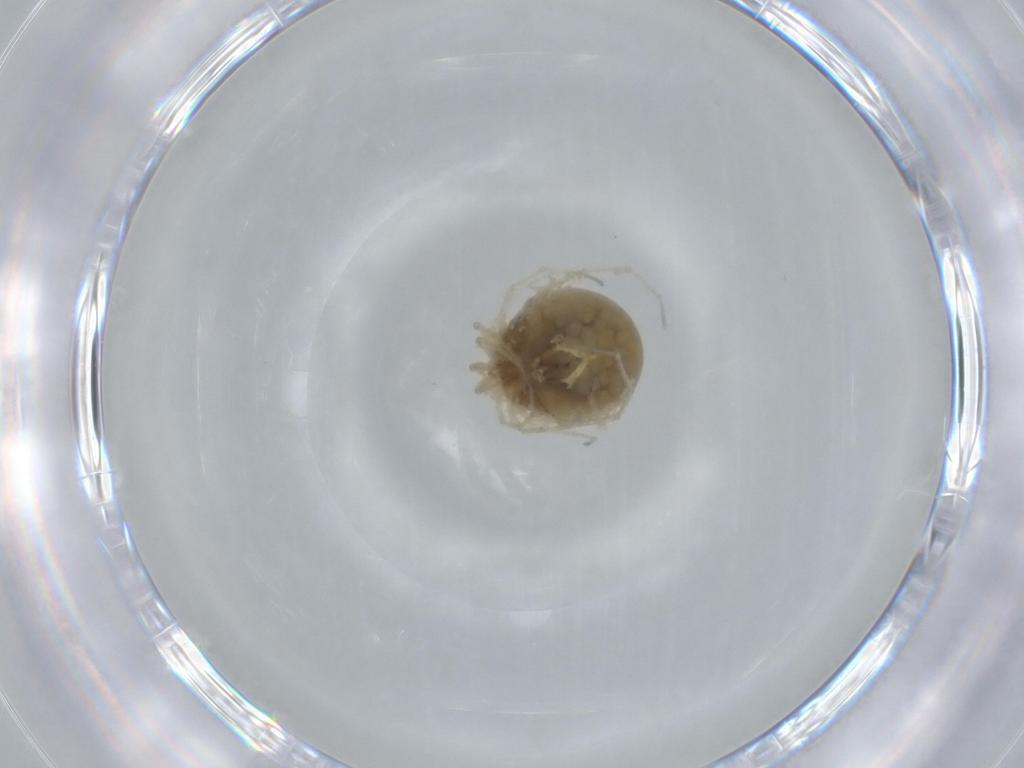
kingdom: Animalia
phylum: Arthropoda
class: Arachnida
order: Trombidiformes
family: Hygrobatidae
